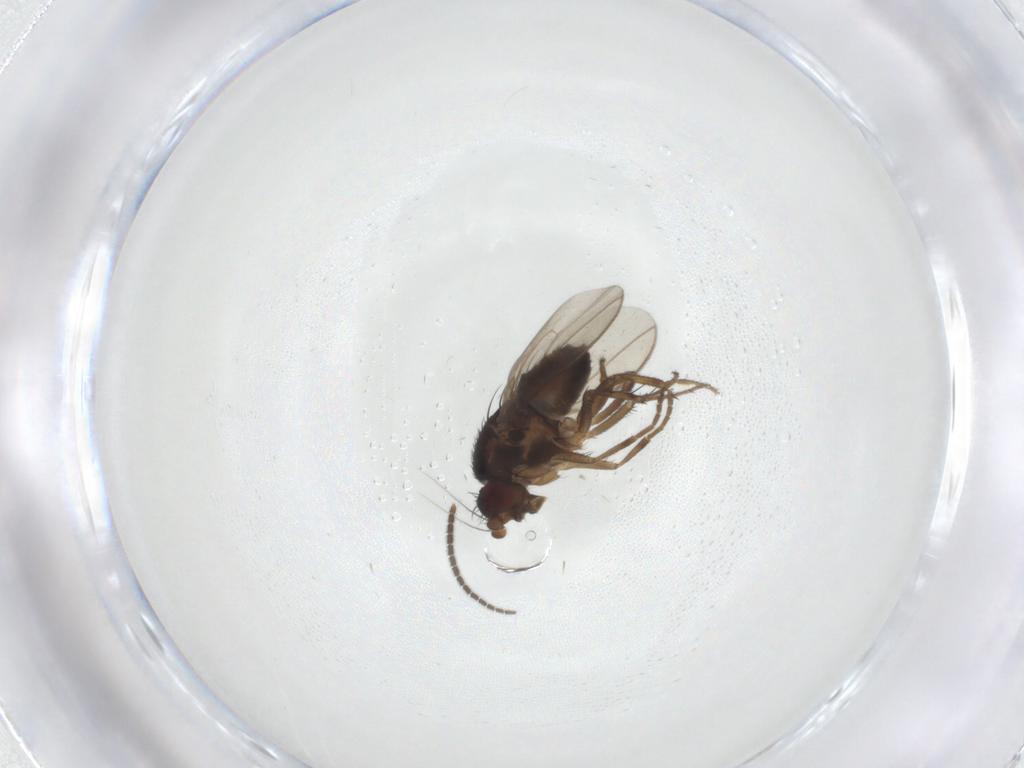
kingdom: Animalia
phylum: Arthropoda
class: Insecta
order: Diptera
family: Sciaridae
